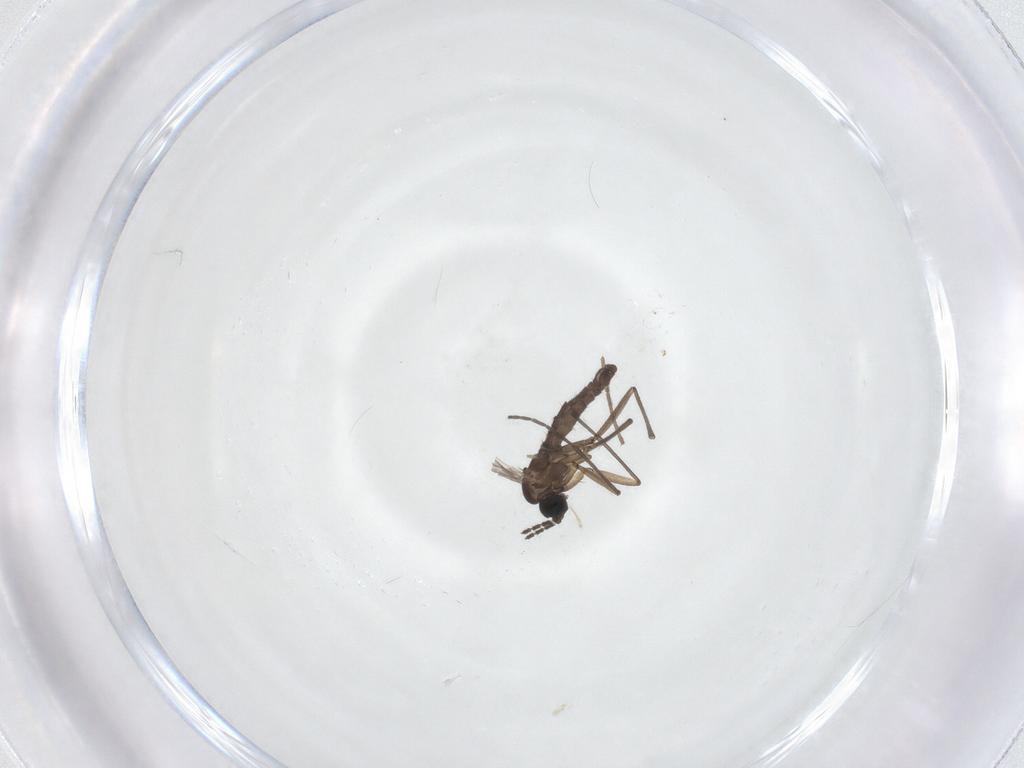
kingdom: Animalia
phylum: Arthropoda
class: Insecta
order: Diptera
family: Sciaridae
